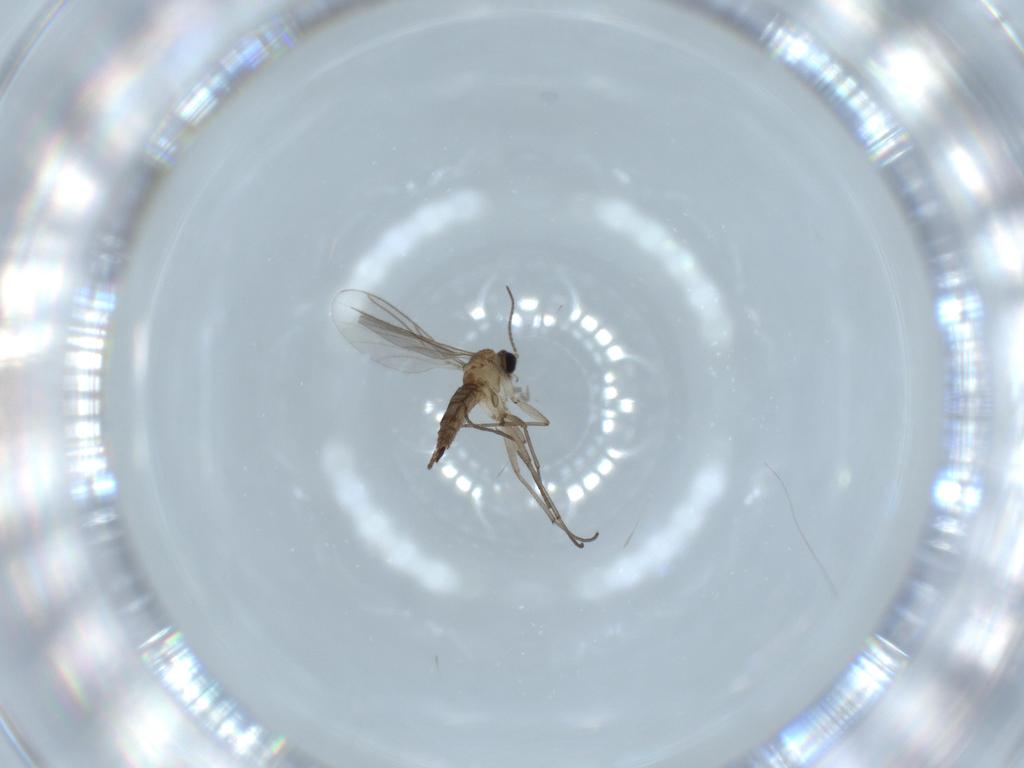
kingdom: Animalia
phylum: Arthropoda
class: Insecta
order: Diptera
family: Sciaridae
